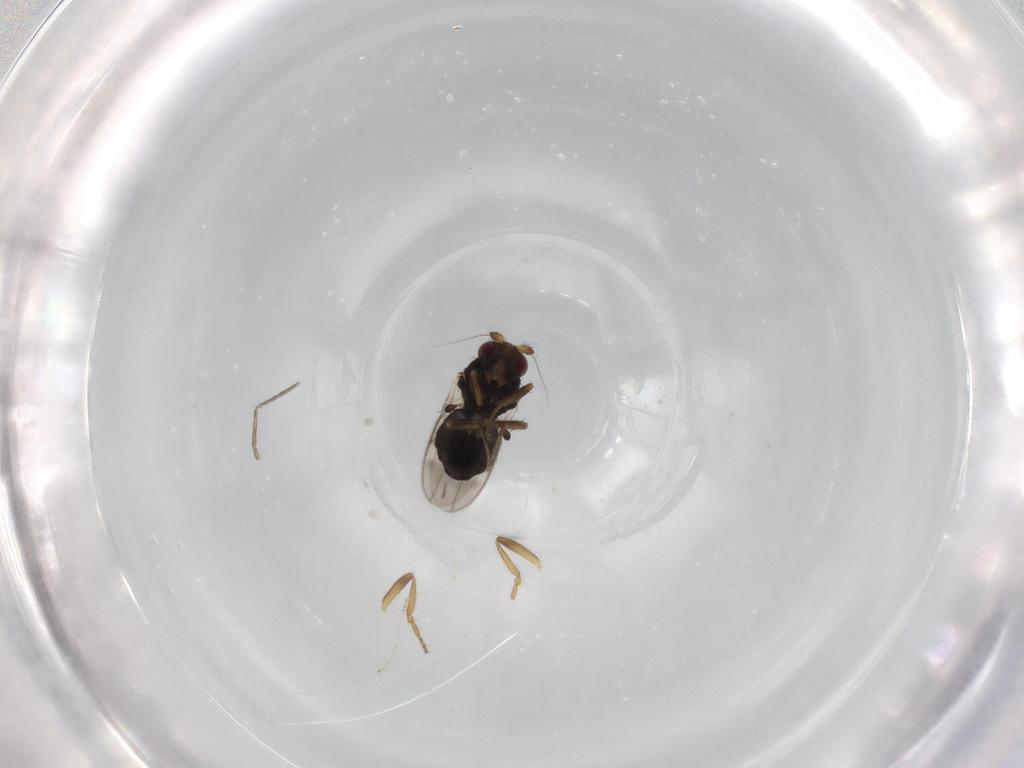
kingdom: Animalia
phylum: Arthropoda
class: Insecta
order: Diptera
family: Sphaeroceridae
